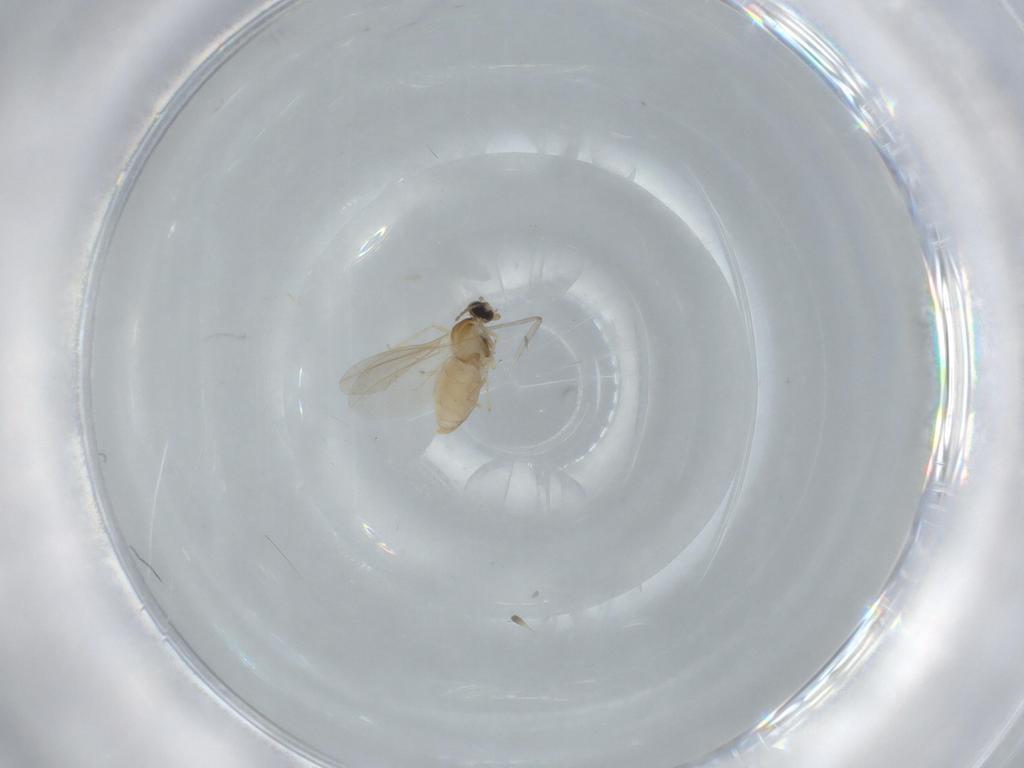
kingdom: Animalia
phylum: Arthropoda
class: Insecta
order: Diptera
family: Cecidomyiidae
